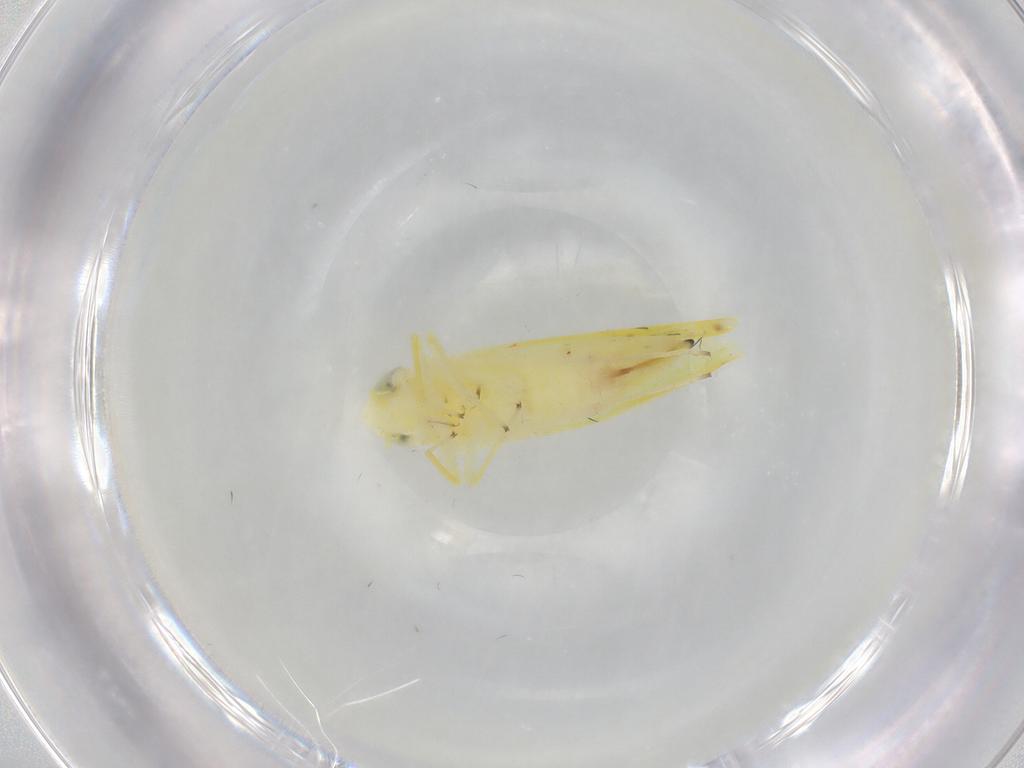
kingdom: Animalia
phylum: Arthropoda
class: Insecta
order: Hemiptera
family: Cicadellidae
